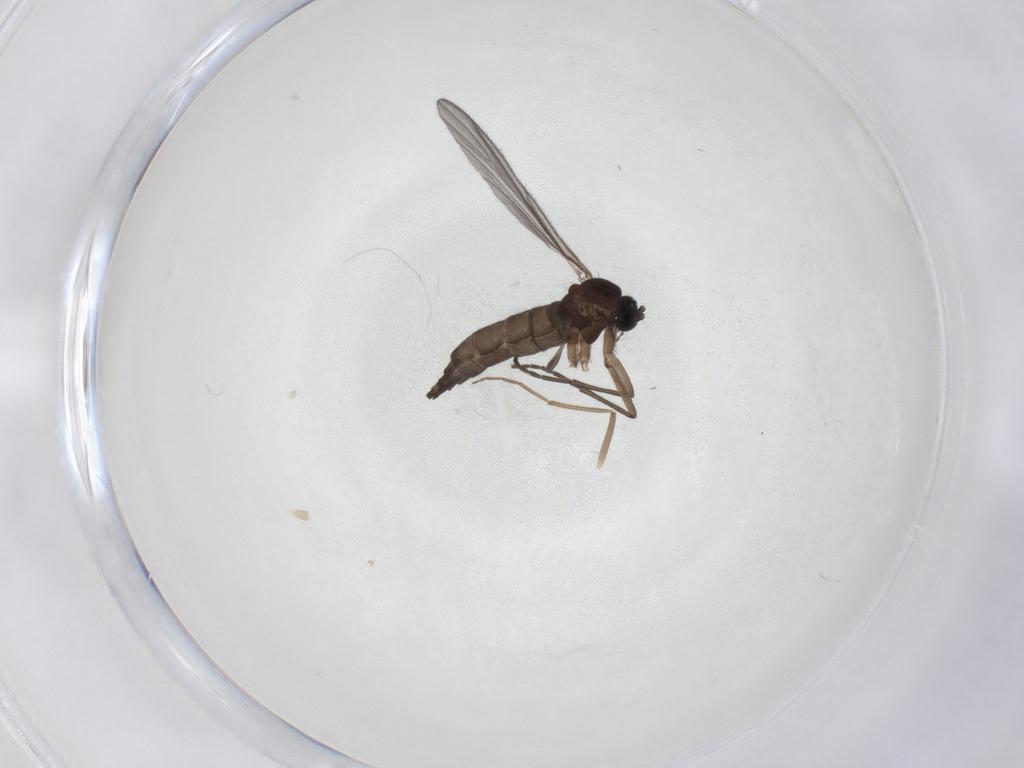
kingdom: Animalia
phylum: Arthropoda
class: Insecta
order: Diptera
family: Sciaridae
